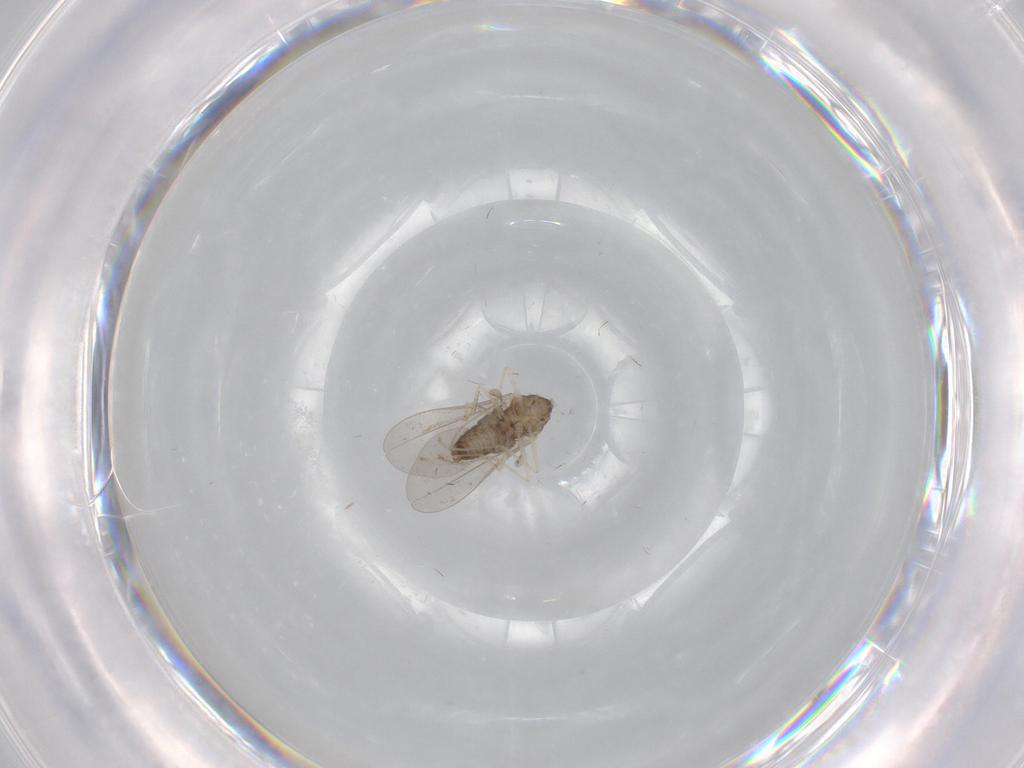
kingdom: Animalia
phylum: Arthropoda
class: Insecta
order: Diptera
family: Cecidomyiidae
